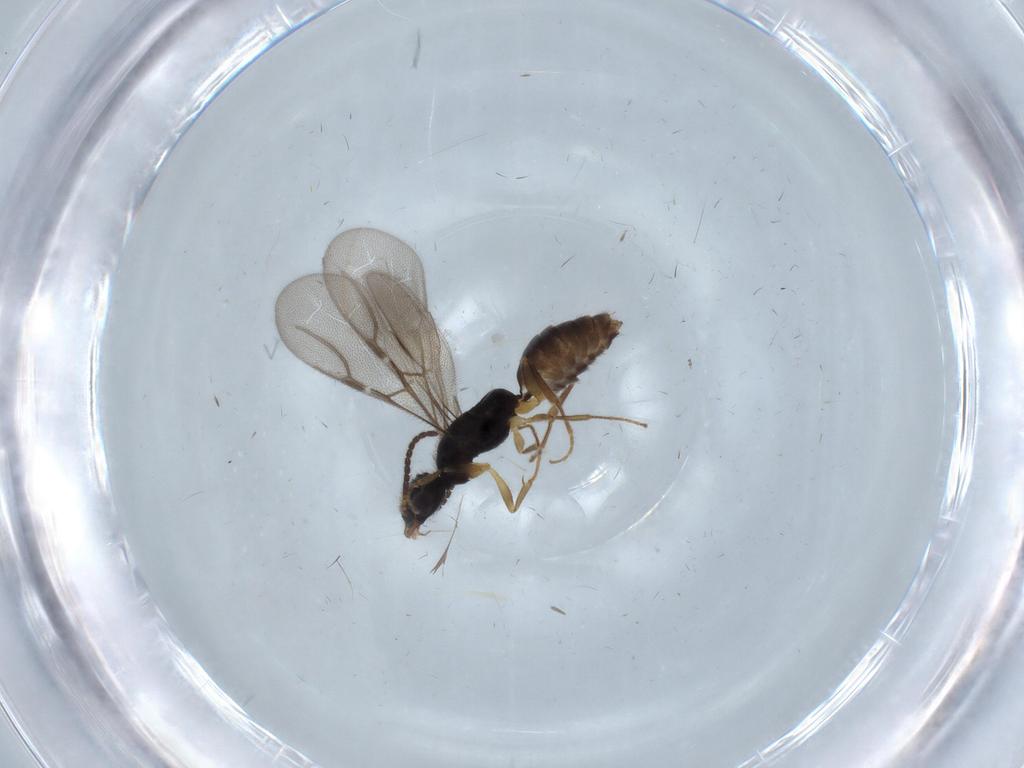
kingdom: Animalia
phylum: Arthropoda
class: Insecta
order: Hymenoptera
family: Bethylidae
